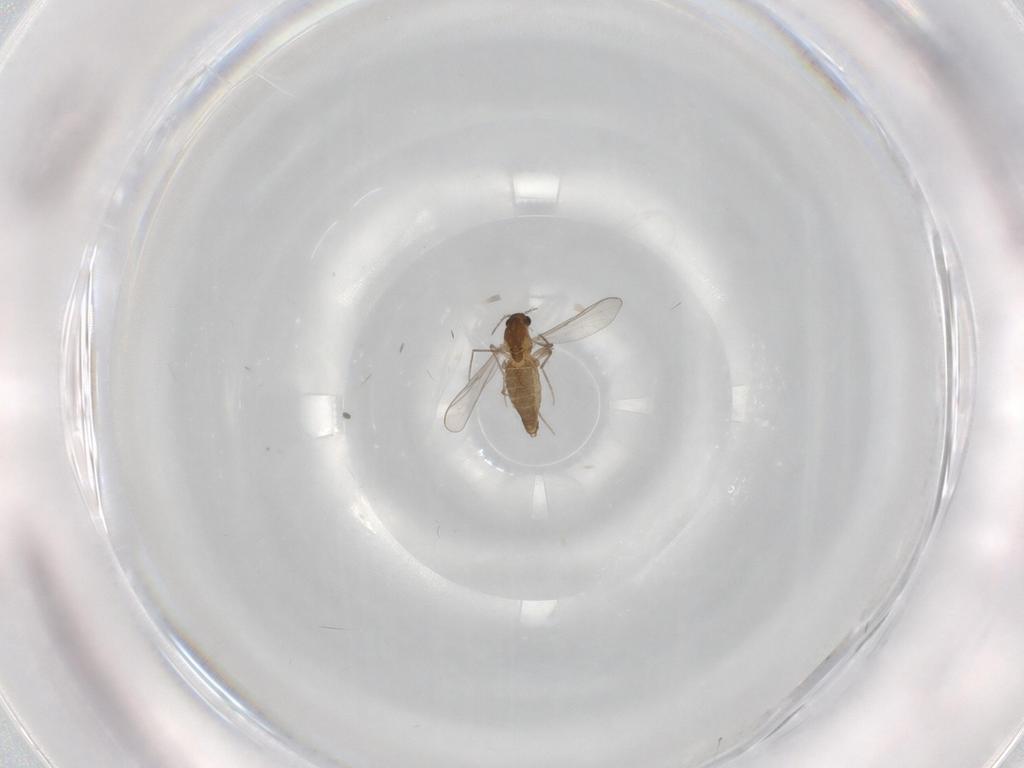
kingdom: Animalia
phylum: Arthropoda
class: Insecta
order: Diptera
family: Chironomidae
